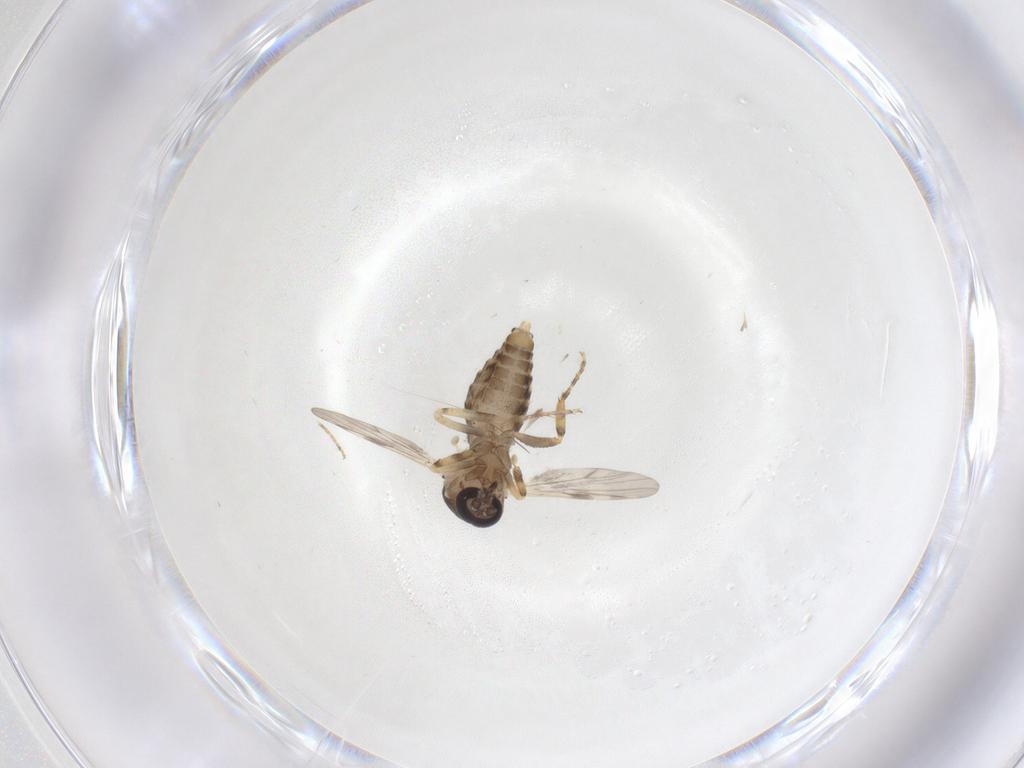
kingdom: Animalia
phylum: Arthropoda
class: Insecta
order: Diptera
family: Ceratopogonidae
